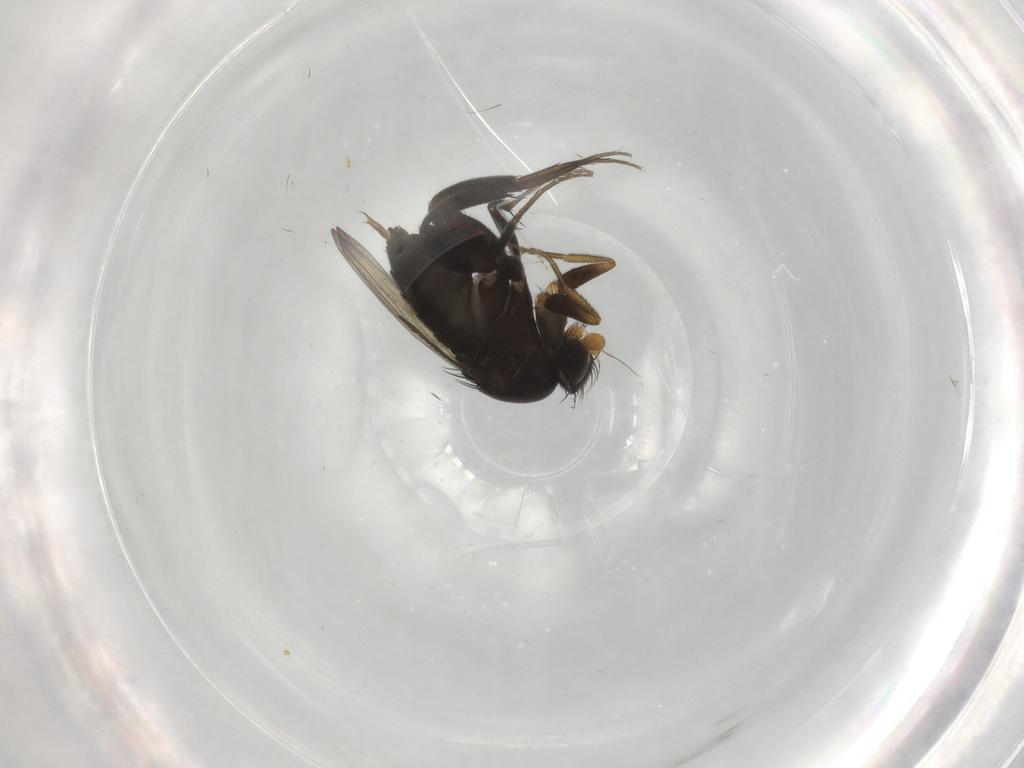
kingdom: Animalia
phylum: Arthropoda
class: Insecta
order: Diptera
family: Phoridae
